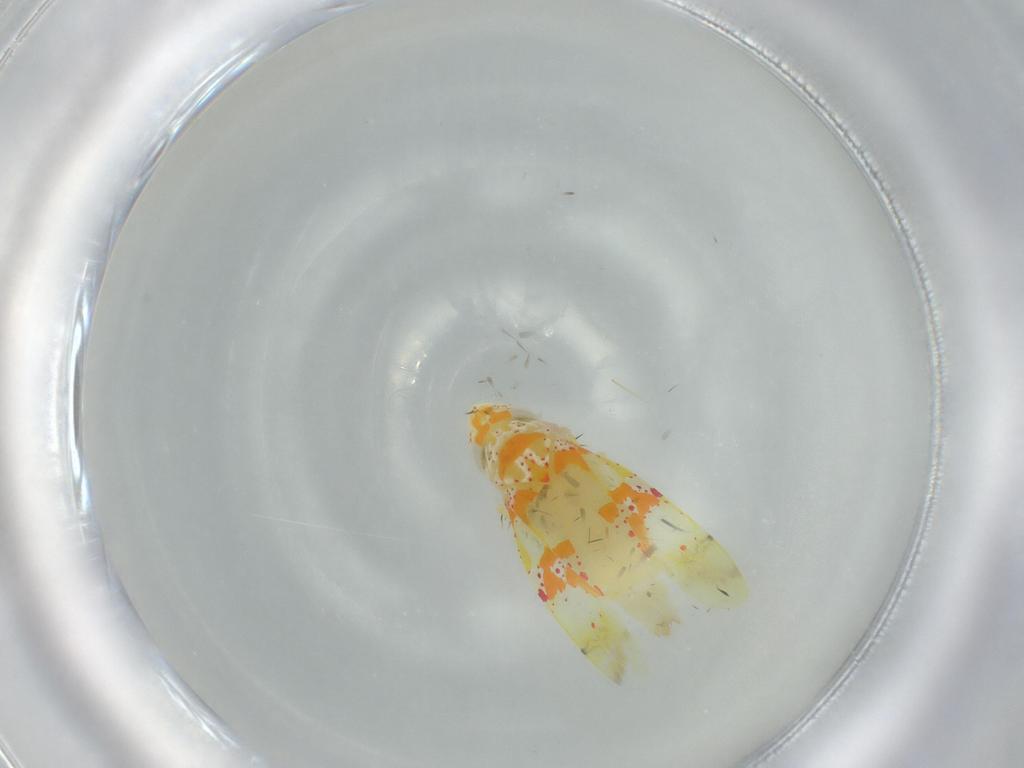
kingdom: Animalia
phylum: Arthropoda
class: Insecta
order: Hemiptera
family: Cicadellidae
